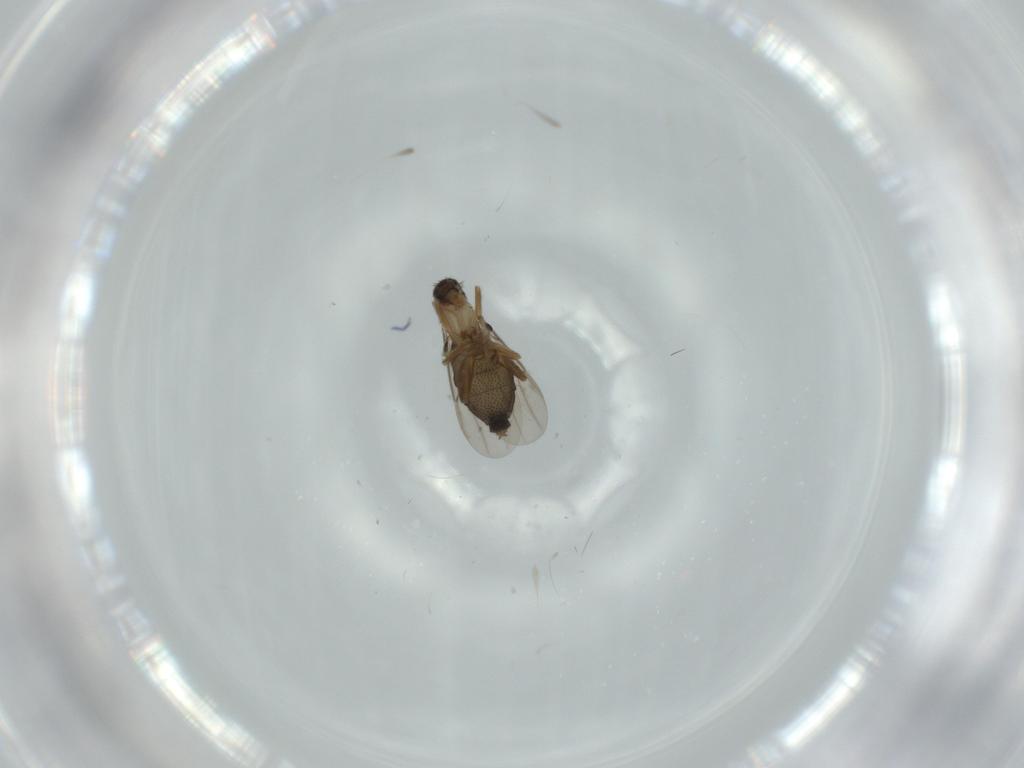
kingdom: Animalia
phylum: Arthropoda
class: Insecta
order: Diptera
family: Phoridae
